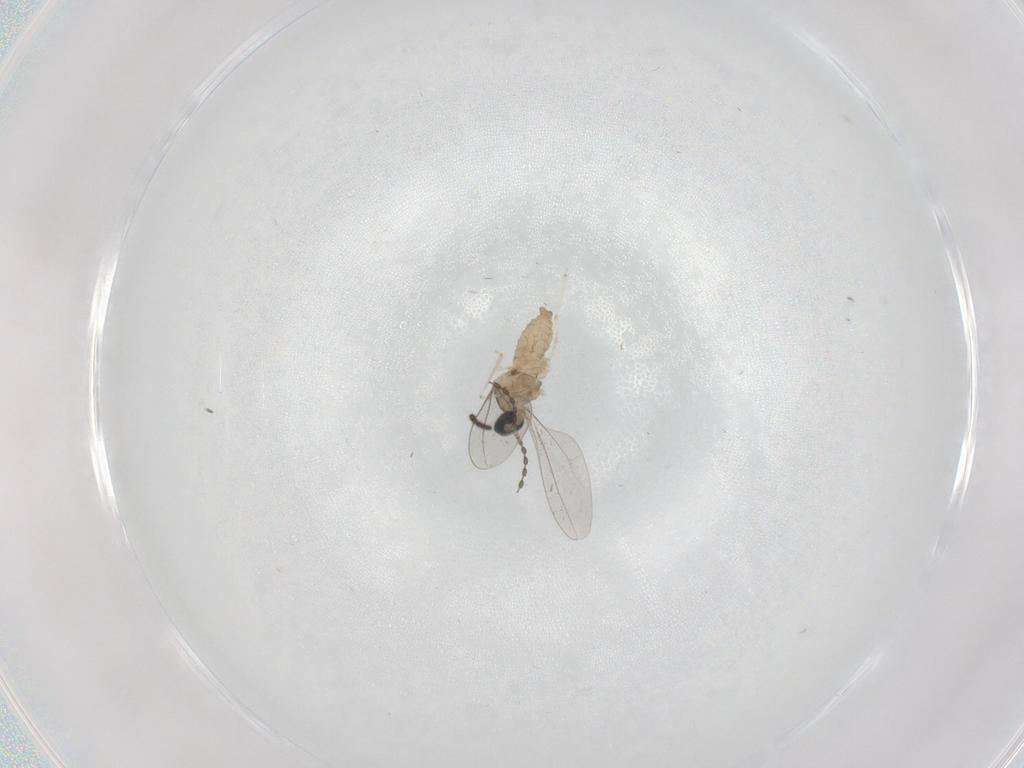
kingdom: Animalia
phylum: Arthropoda
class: Insecta
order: Diptera
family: Cecidomyiidae
